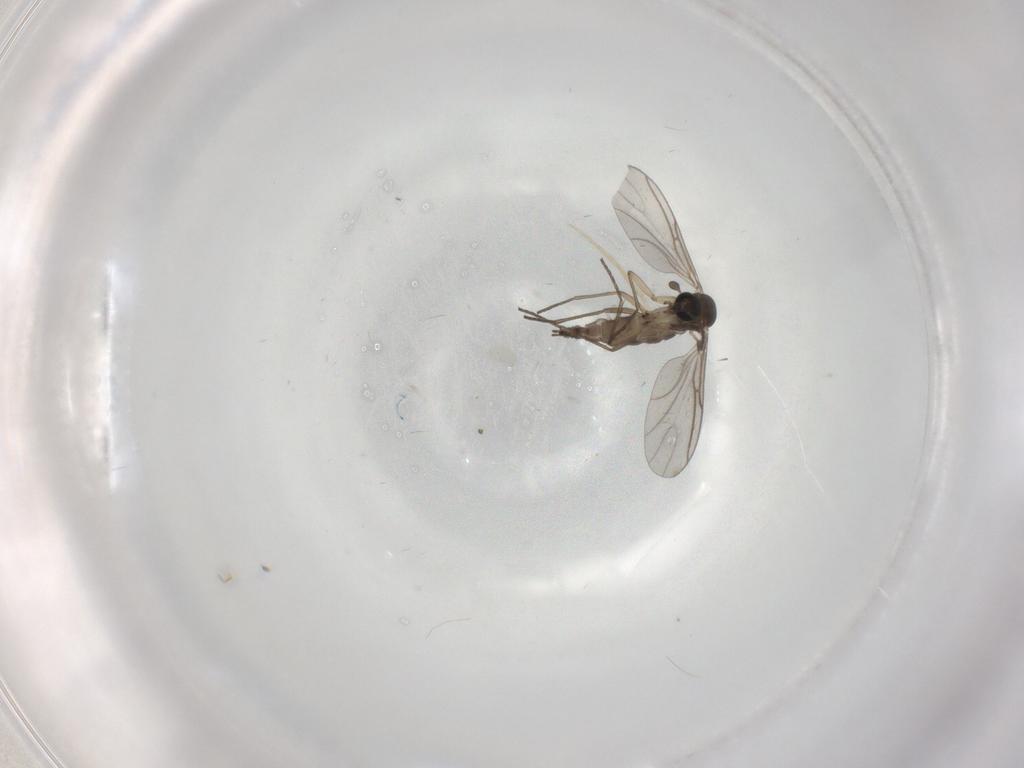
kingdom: Animalia
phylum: Arthropoda
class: Insecta
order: Diptera
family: Sciaridae
